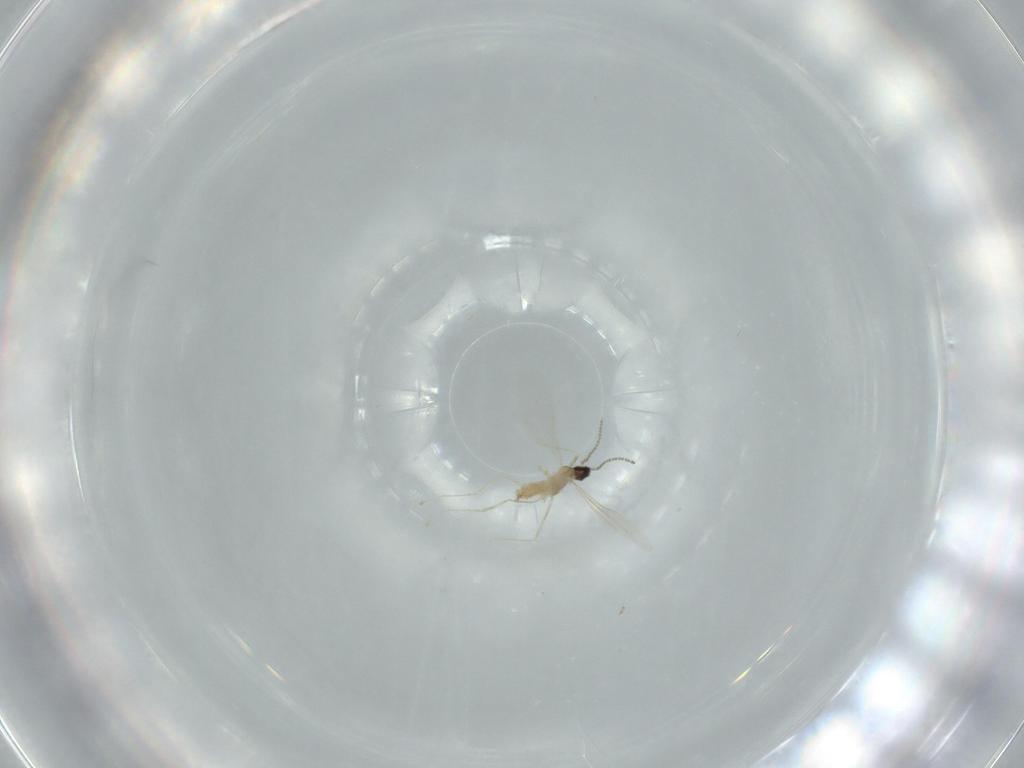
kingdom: Animalia
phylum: Arthropoda
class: Insecta
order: Diptera
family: Cecidomyiidae
